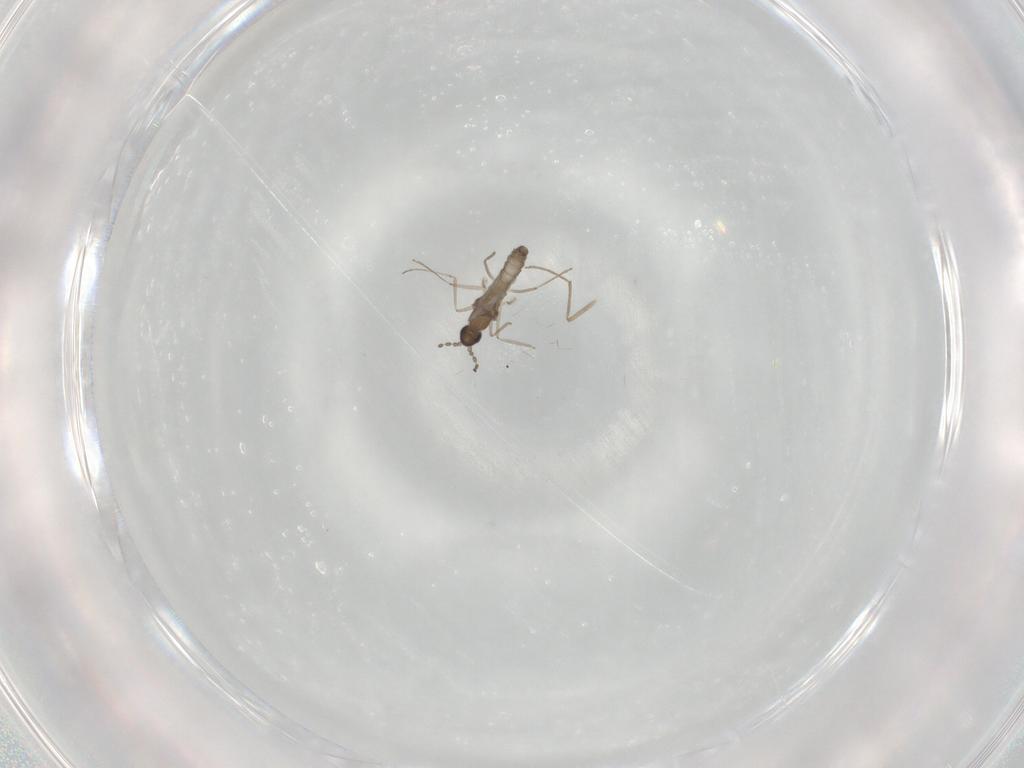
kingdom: Animalia
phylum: Arthropoda
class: Insecta
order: Diptera
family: Cecidomyiidae
